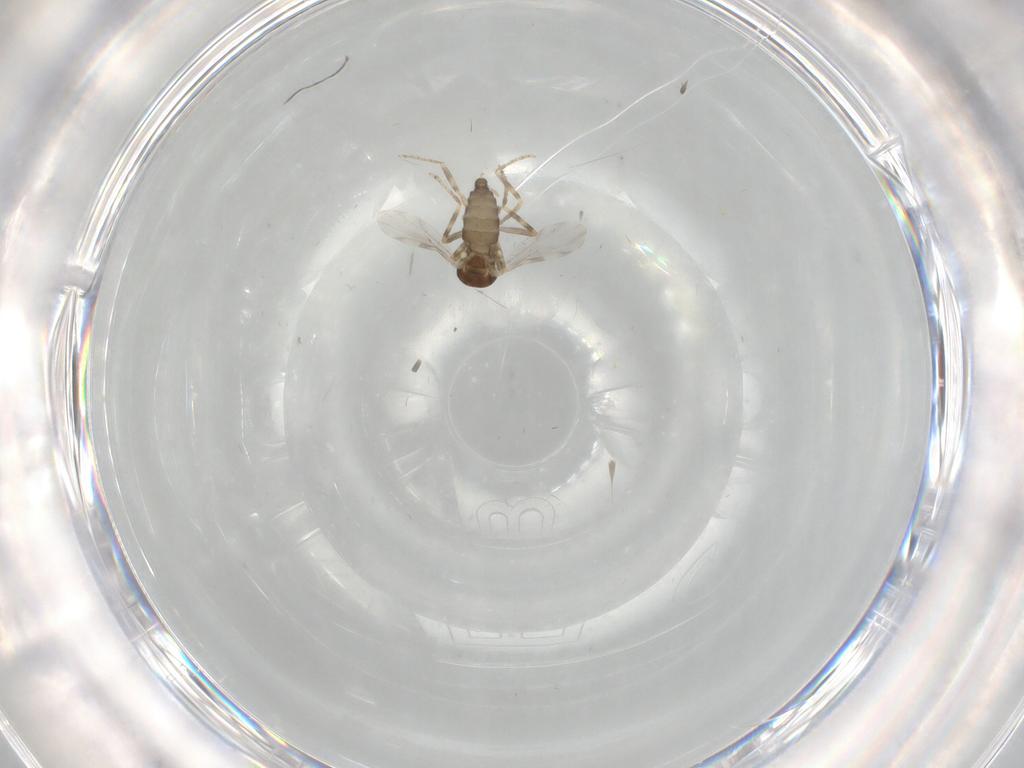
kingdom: Animalia
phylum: Arthropoda
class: Insecta
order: Diptera
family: Ceratopogonidae
